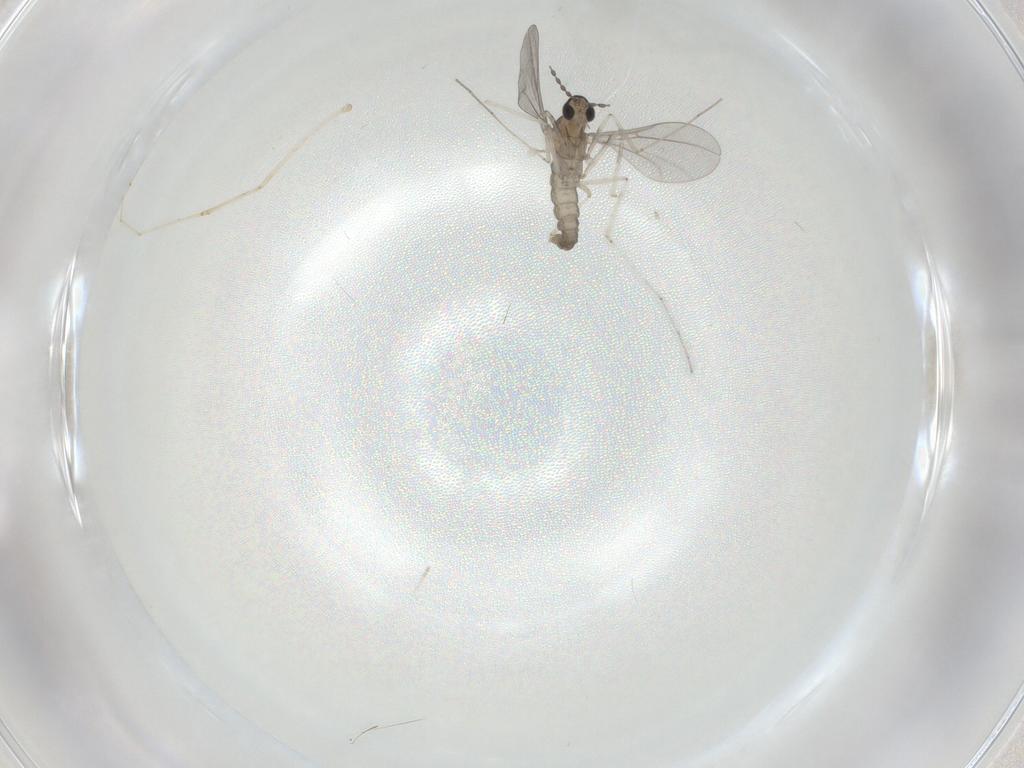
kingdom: Animalia
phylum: Arthropoda
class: Insecta
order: Diptera
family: Cecidomyiidae
